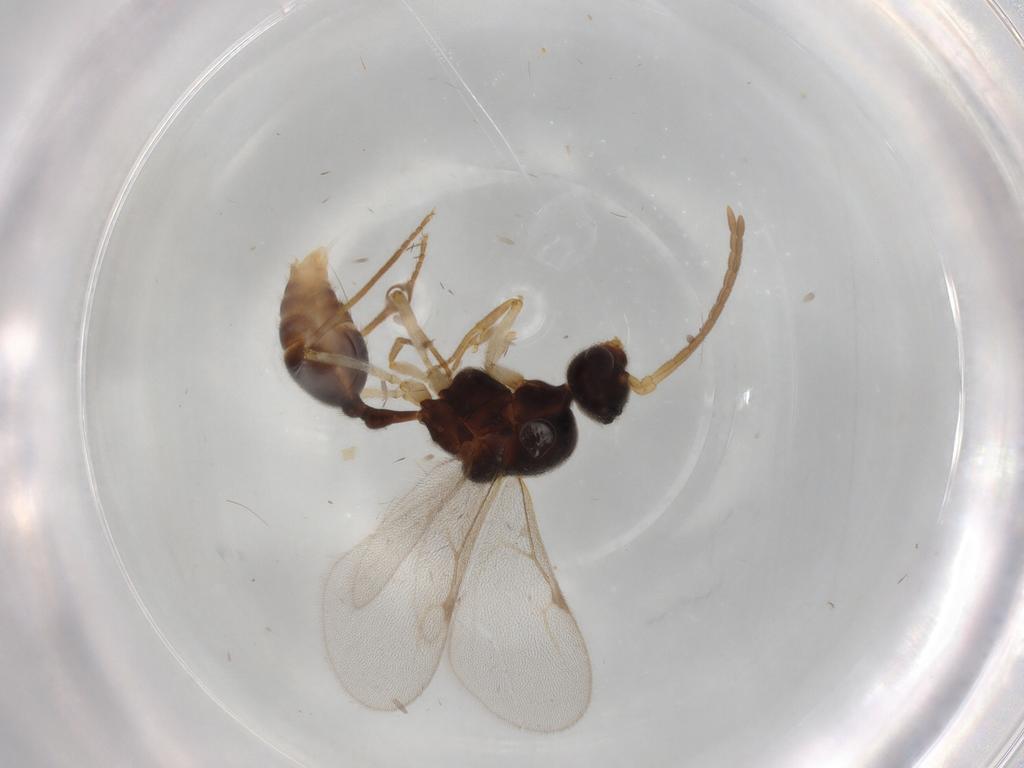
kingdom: Animalia
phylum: Arthropoda
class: Insecta
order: Hymenoptera
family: Formicidae
